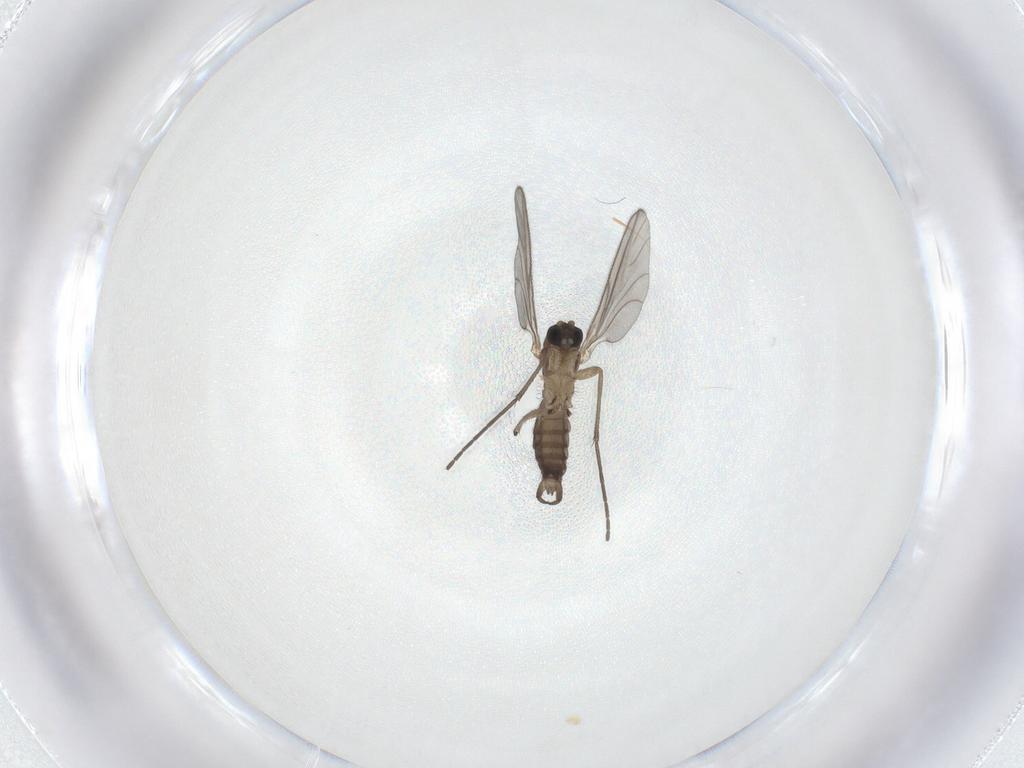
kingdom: Animalia
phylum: Arthropoda
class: Insecta
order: Diptera
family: Sciaridae
